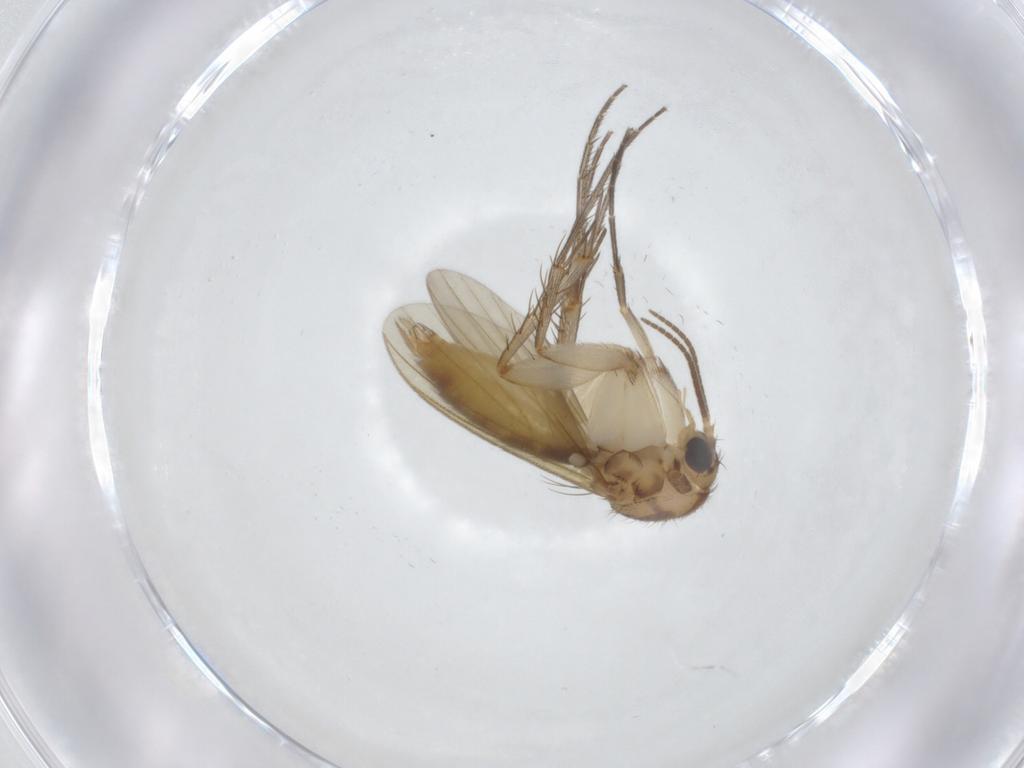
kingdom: Animalia
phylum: Arthropoda
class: Insecta
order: Diptera
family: Mycetophilidae
